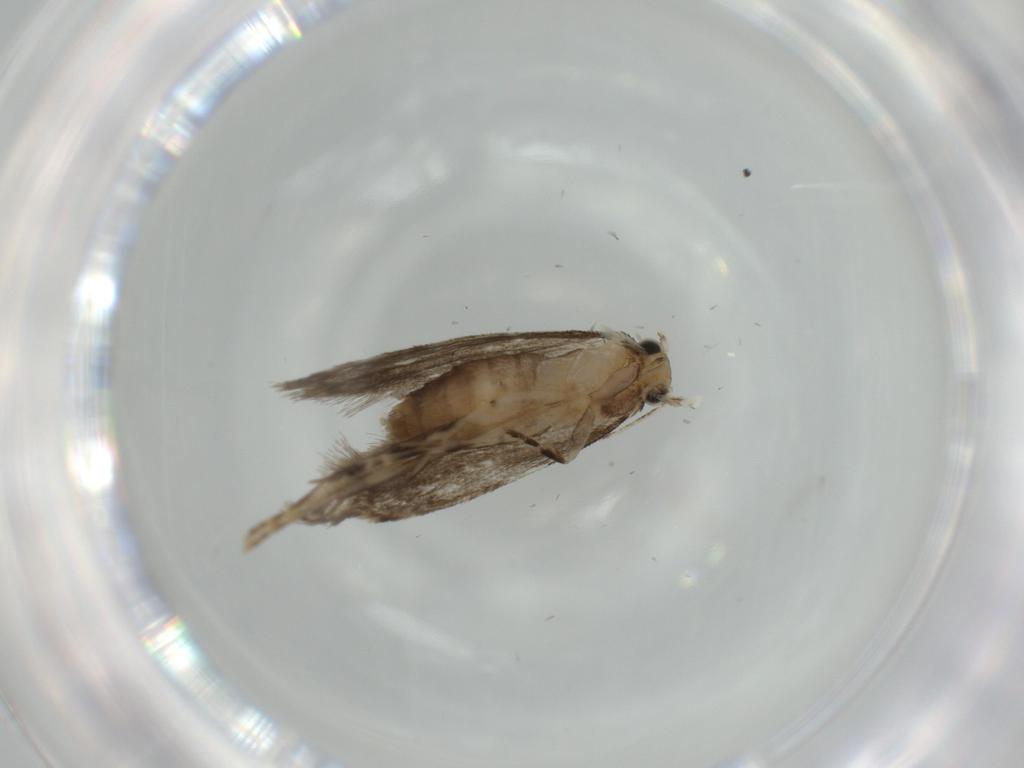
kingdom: Animalia
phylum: Arthropoda
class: Insecta
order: Lepidoptera
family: Tineidae
